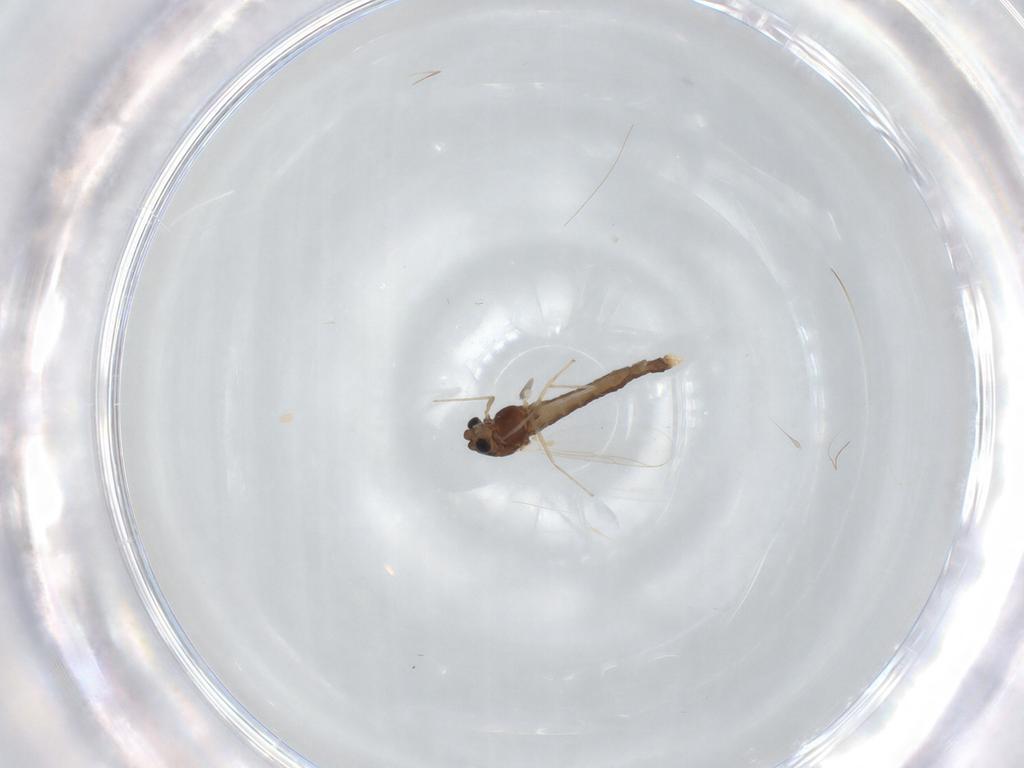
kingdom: Animalia
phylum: Arthropoda
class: Insecta
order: Diptera
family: Chironomidae
